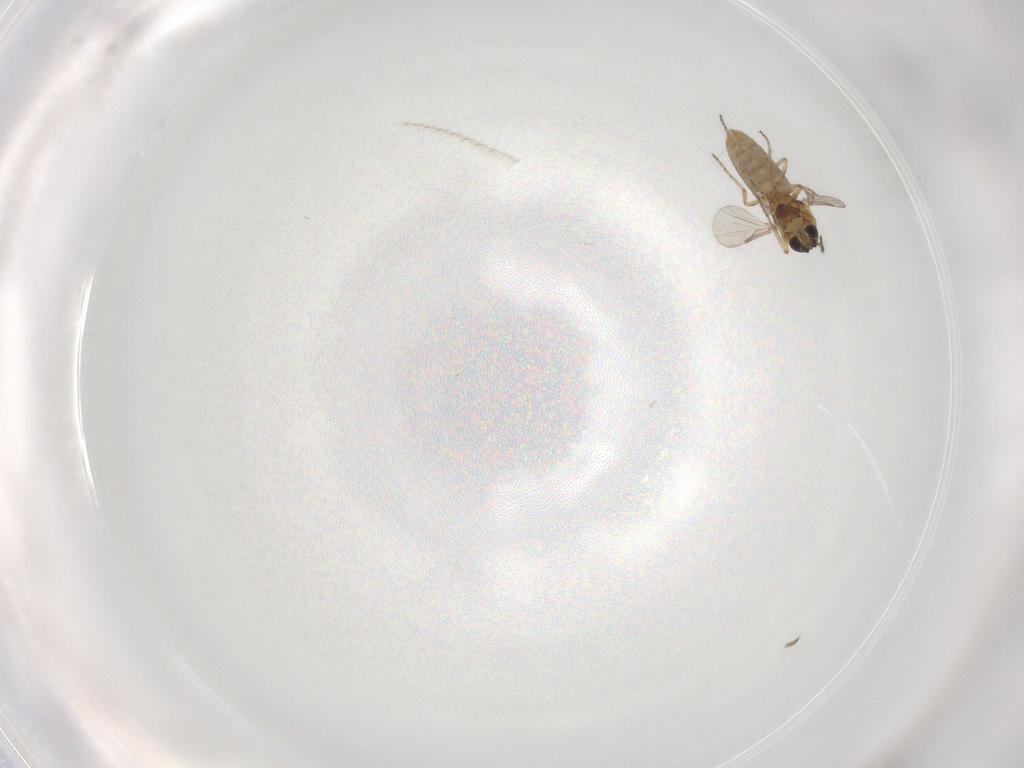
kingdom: Animalia
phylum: Arthropoda
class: Insecta
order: Diptera
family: Cecidomyiidae
